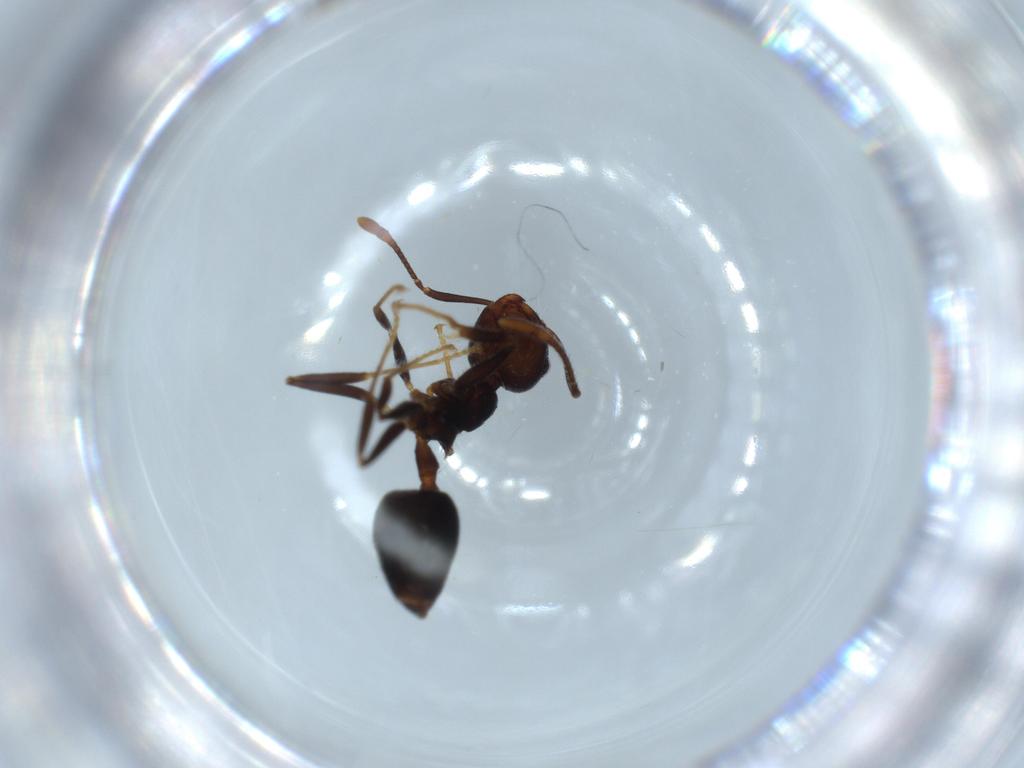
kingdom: Animalia
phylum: Arthropoda
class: Insecta
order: Hymenoptera
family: Formicidae
